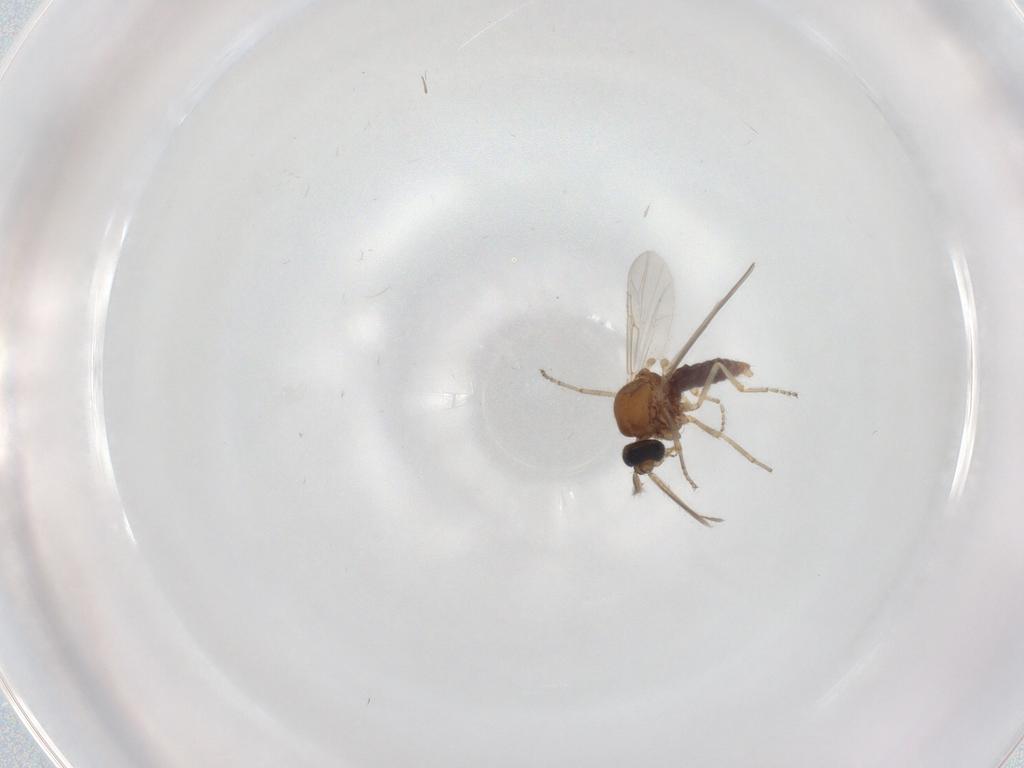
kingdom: Animalia
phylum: Arthropoda
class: Insecta
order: Diptera
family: Ceratopogonidae
